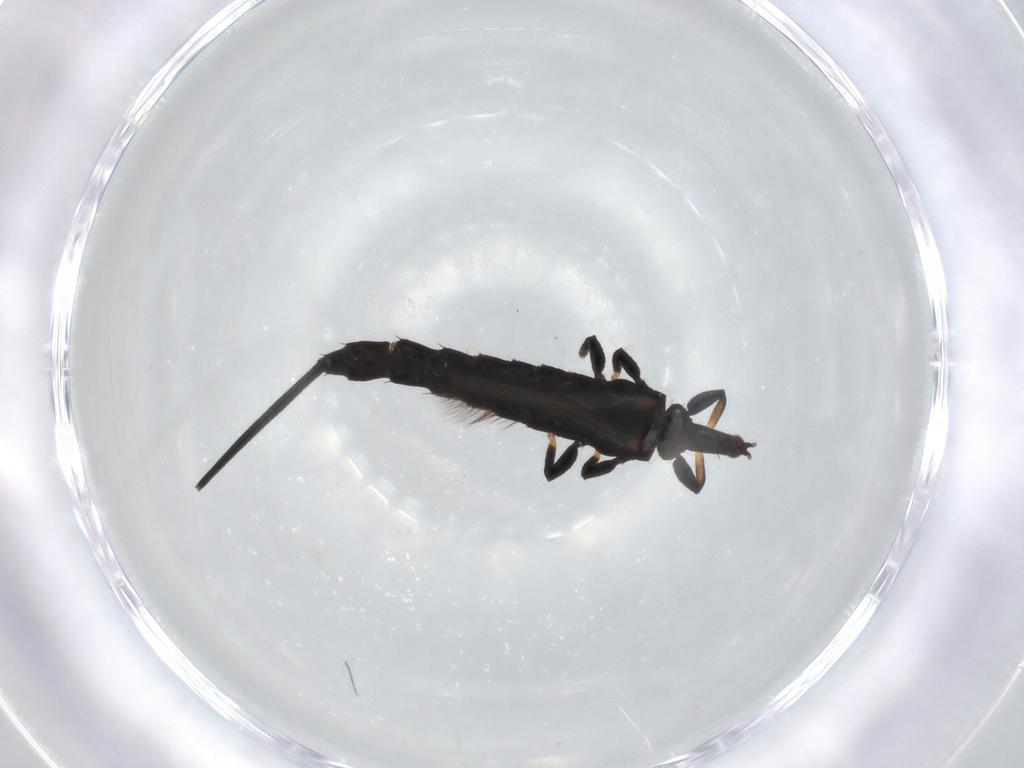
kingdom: Animalia
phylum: Arthropoda
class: Insecta
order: Thysanoptera
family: Phlaeothripidae
